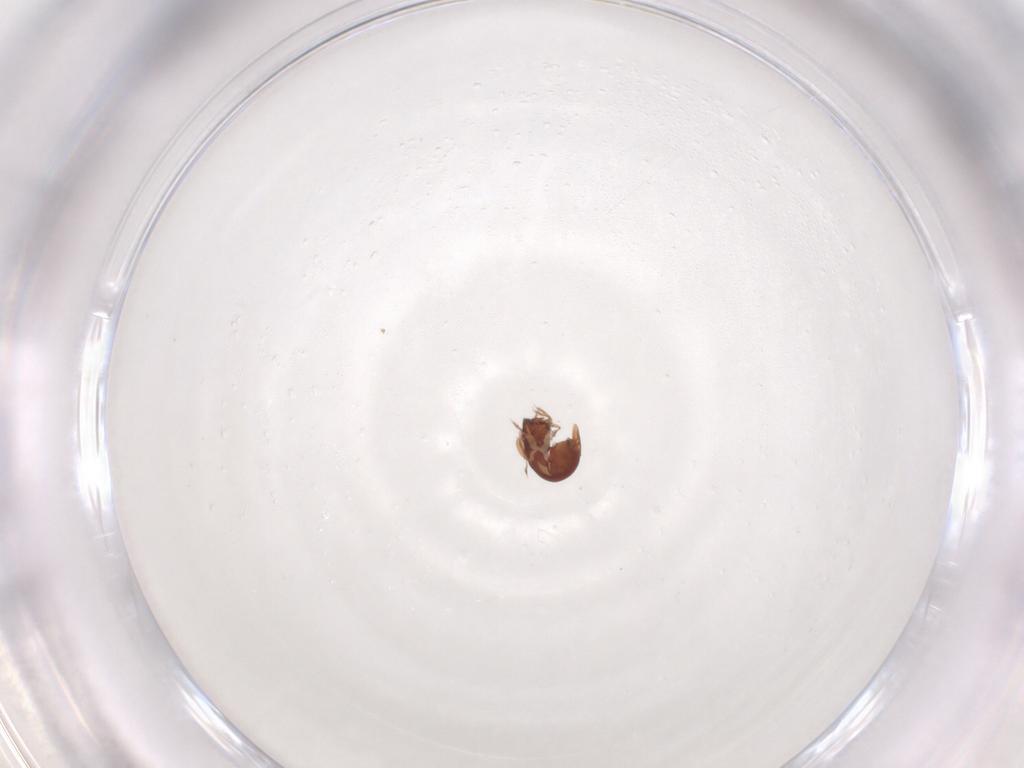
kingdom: Animalia
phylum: Arthropoda
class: Arachnida
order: Sarcoptiformes
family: Galumnidae
